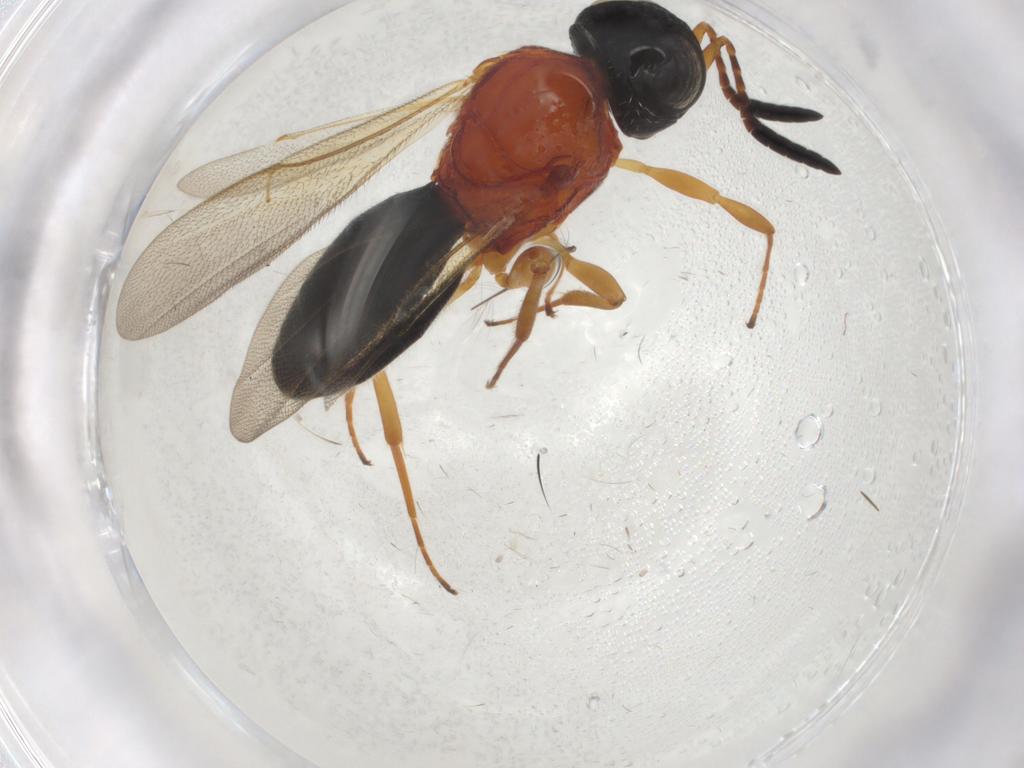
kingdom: Animalia
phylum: Arthropoda
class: Insecta
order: Hymenoptera
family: Scelionidae
